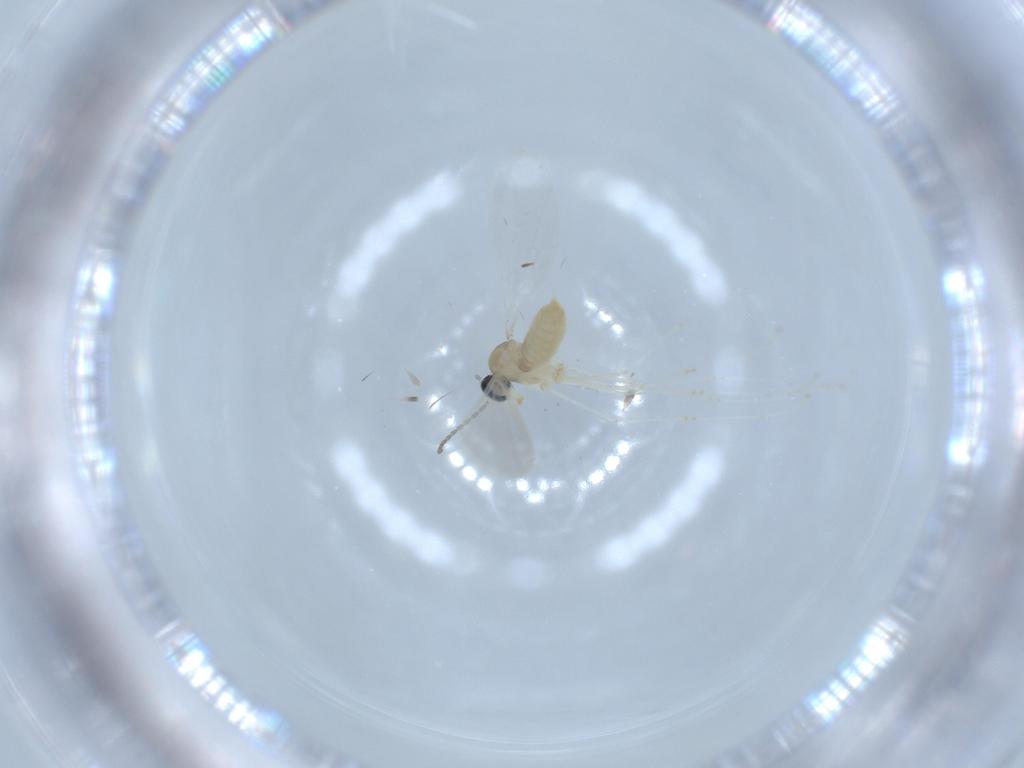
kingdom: Animalia
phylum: Arthropoda
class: Insecta
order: Diptera
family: Cecidomyiidae
